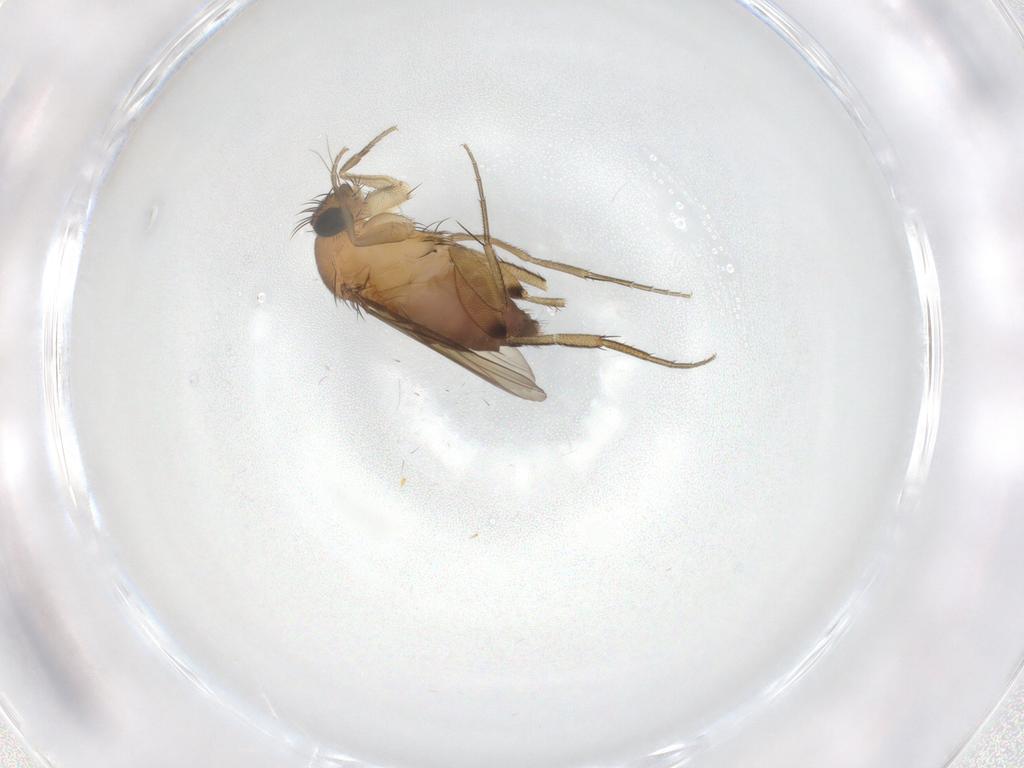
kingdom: Animalia
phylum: Arthropoda
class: Insecta
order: Diptera
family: Phoridae
